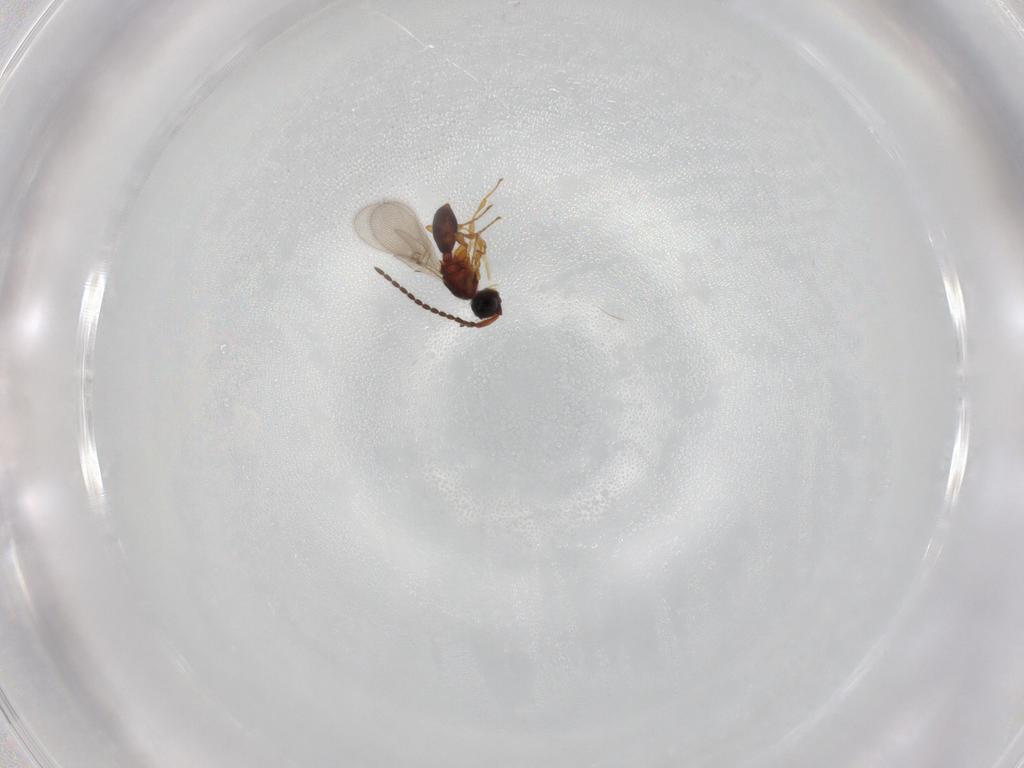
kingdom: Animalia
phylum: Arthropoda
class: Insecta
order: Hymenoptera
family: Diapriidae
